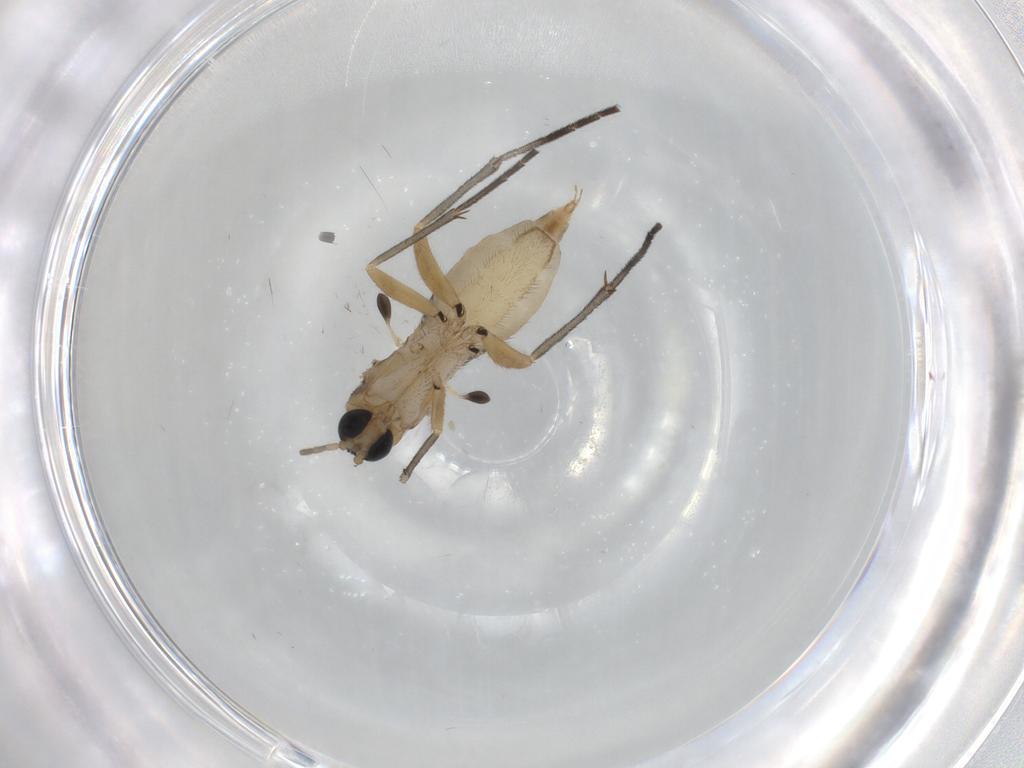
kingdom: Animalia
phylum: Arthropoda
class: Insecta
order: Diptera
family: Sciaridae
